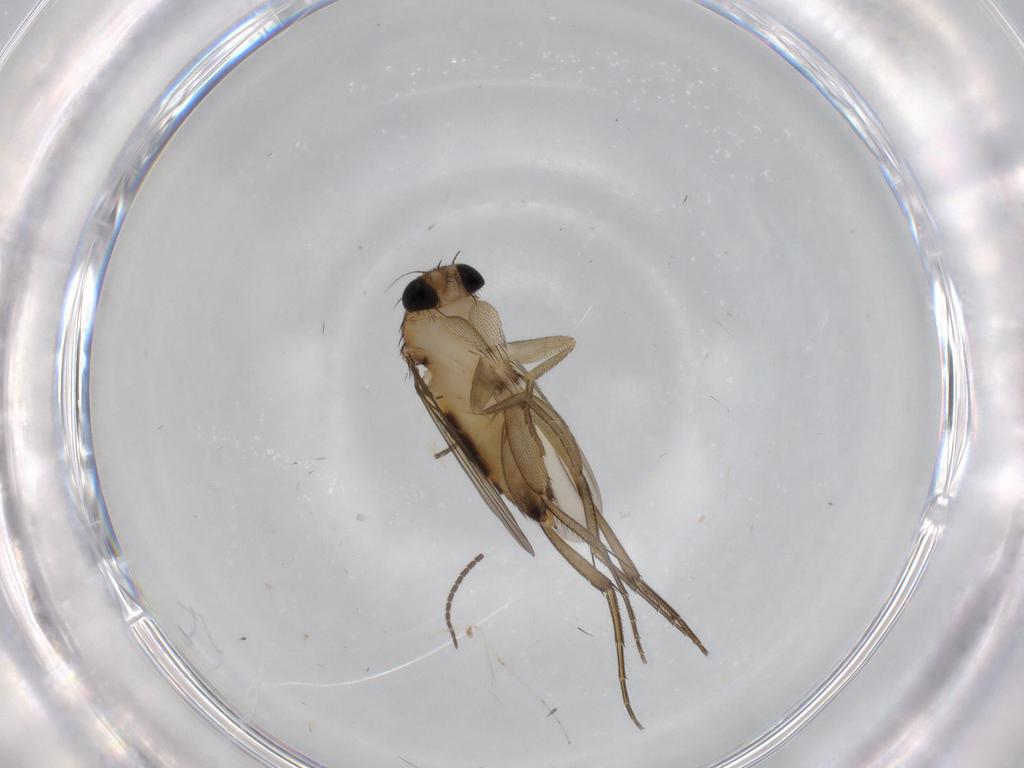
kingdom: Animalia
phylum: Arthropoda
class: Insecta
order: Diptera
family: Phoridae
